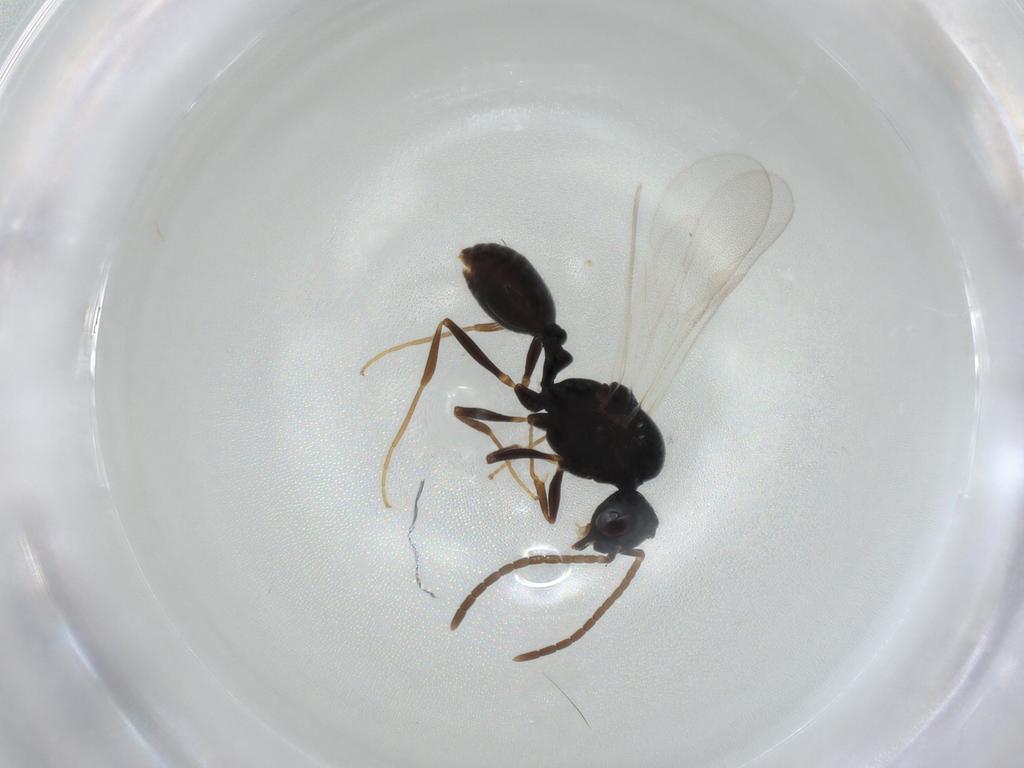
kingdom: Animalia
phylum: Arthropoda
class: Insecta
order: Hymenoptera
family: Formicidae
